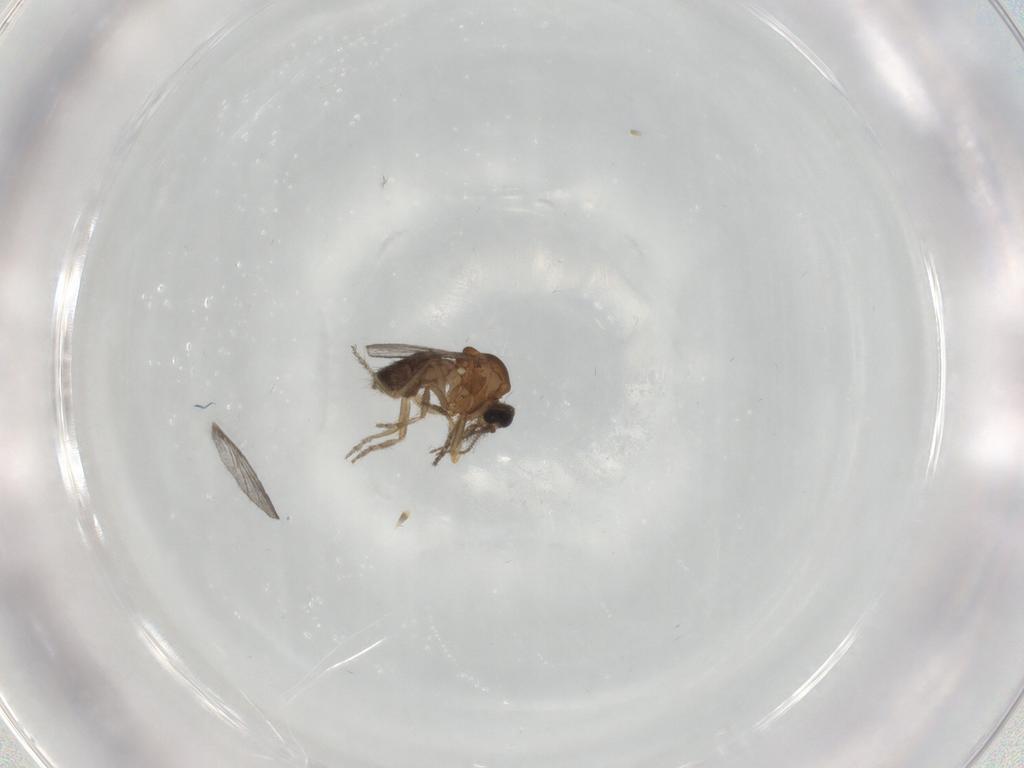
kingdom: Animalia
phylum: Arthropoda
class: Insecta
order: Diptera
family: Ceratopogonidae
